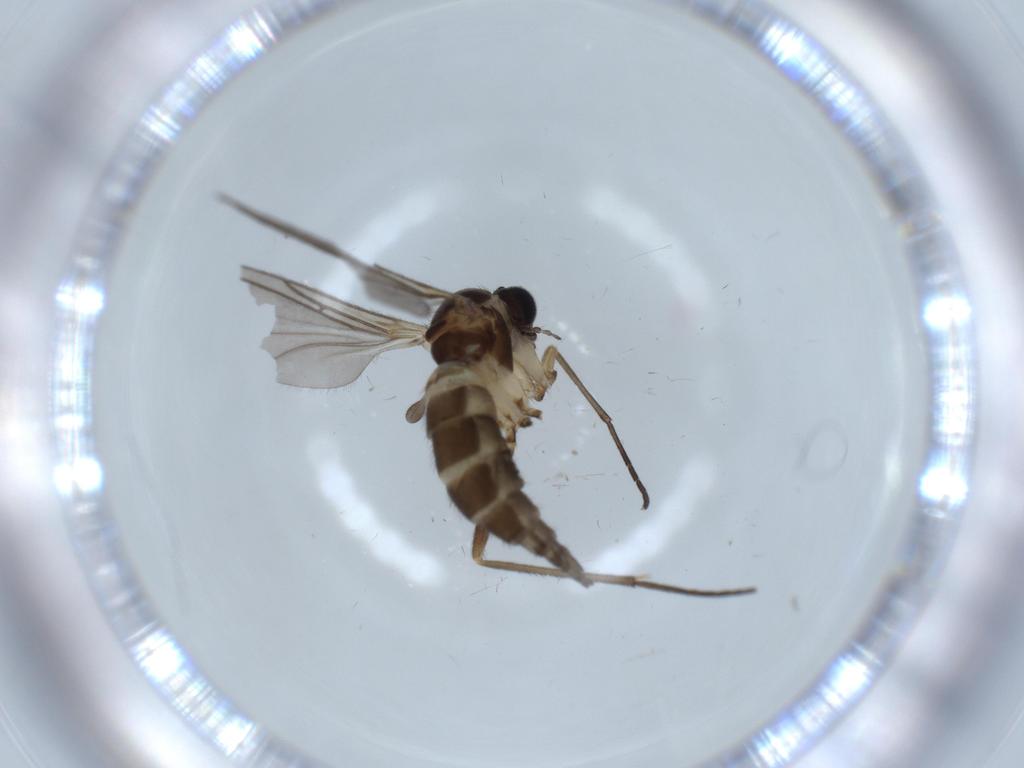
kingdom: Animalia
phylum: Arthropoda
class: Insecta
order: Diptera
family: Sciaridae
